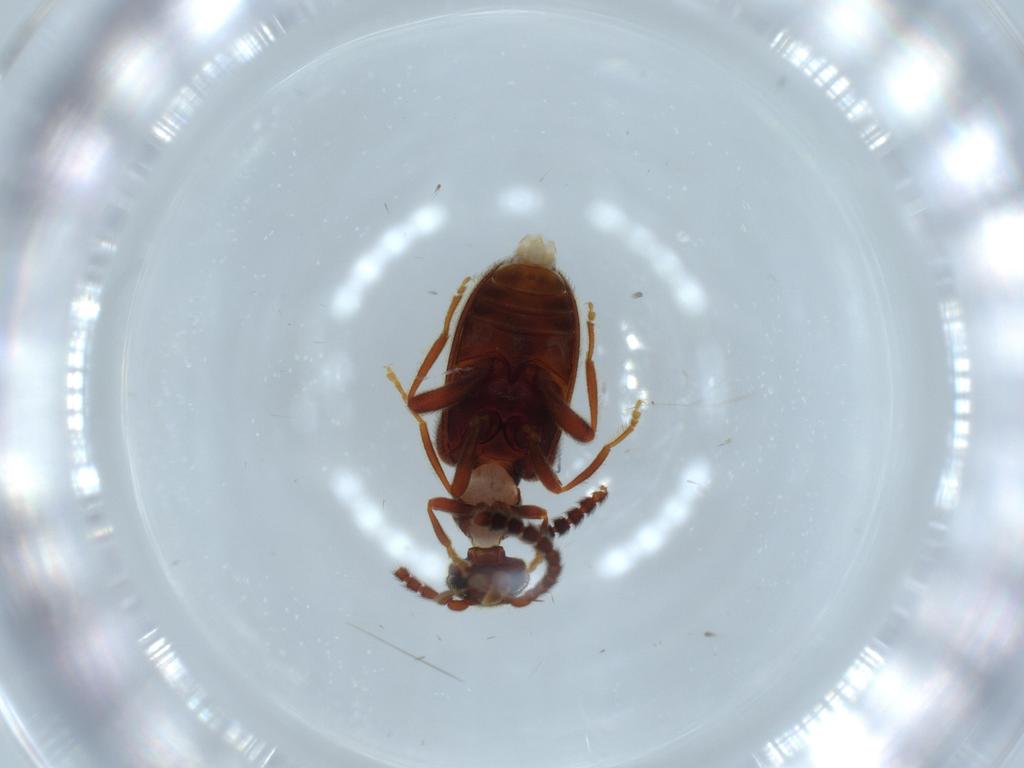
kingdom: Animalia
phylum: Arthropoda
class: Insecta
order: Coleoptera
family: Chrysomelidae
